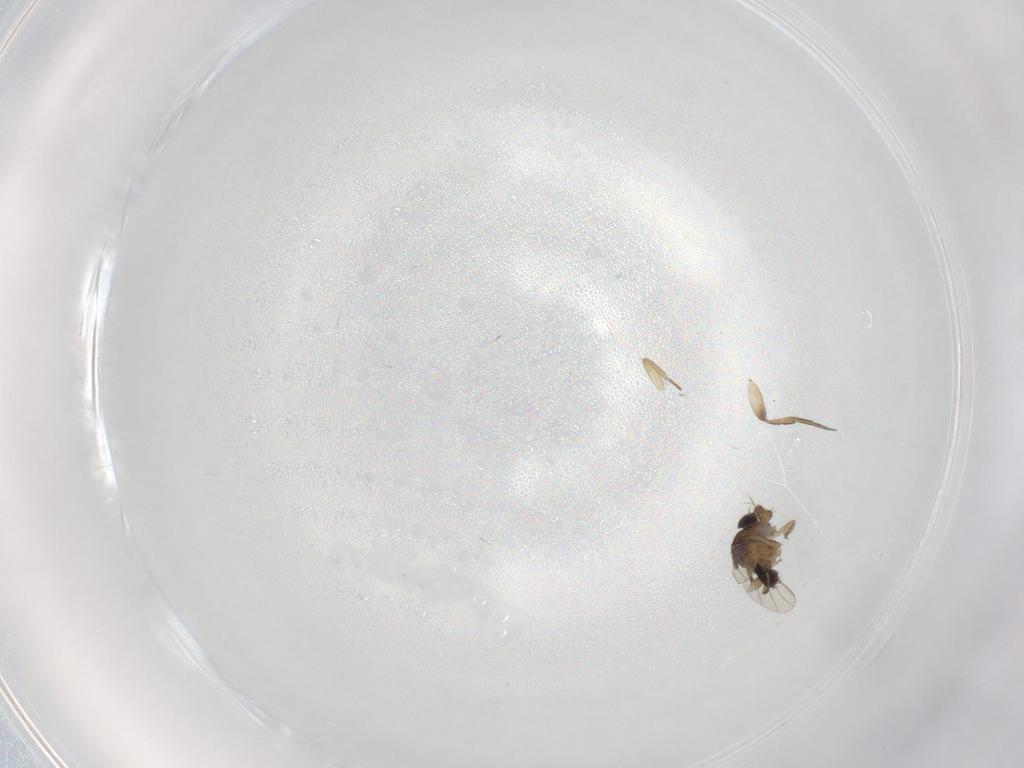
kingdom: Animalia
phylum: Arthropoda
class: Insecta
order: Diptera
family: Cecidomyiidae
